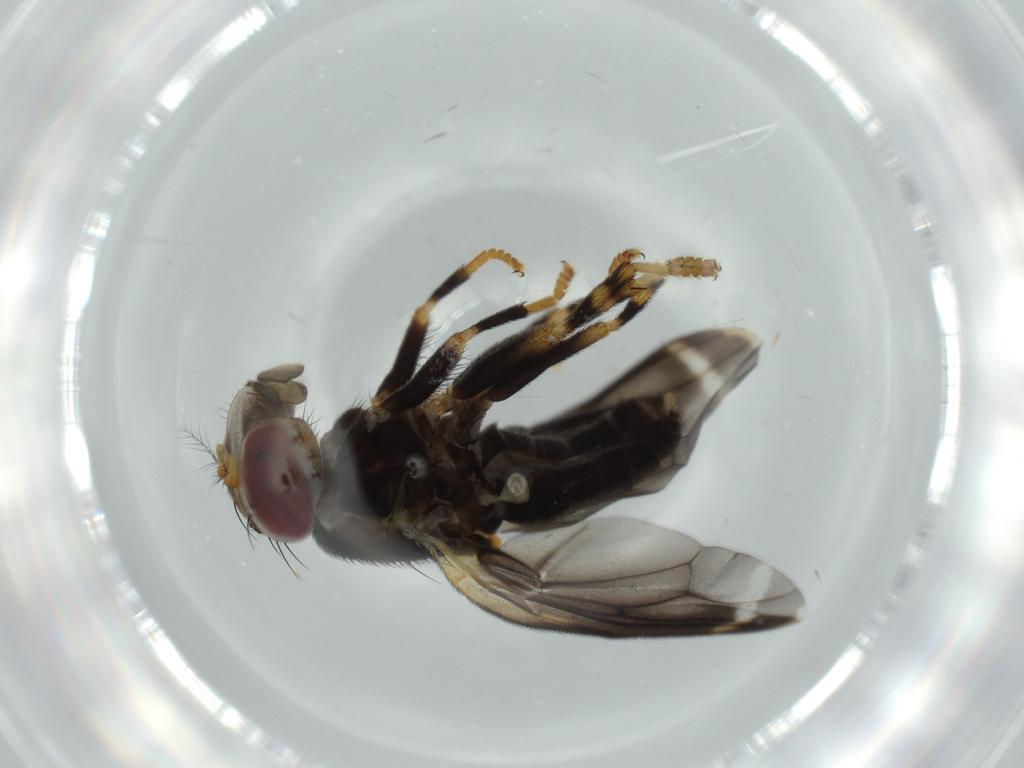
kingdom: Animalia
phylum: Arthropoda
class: Insecta
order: Diptera
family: Periscelididae
